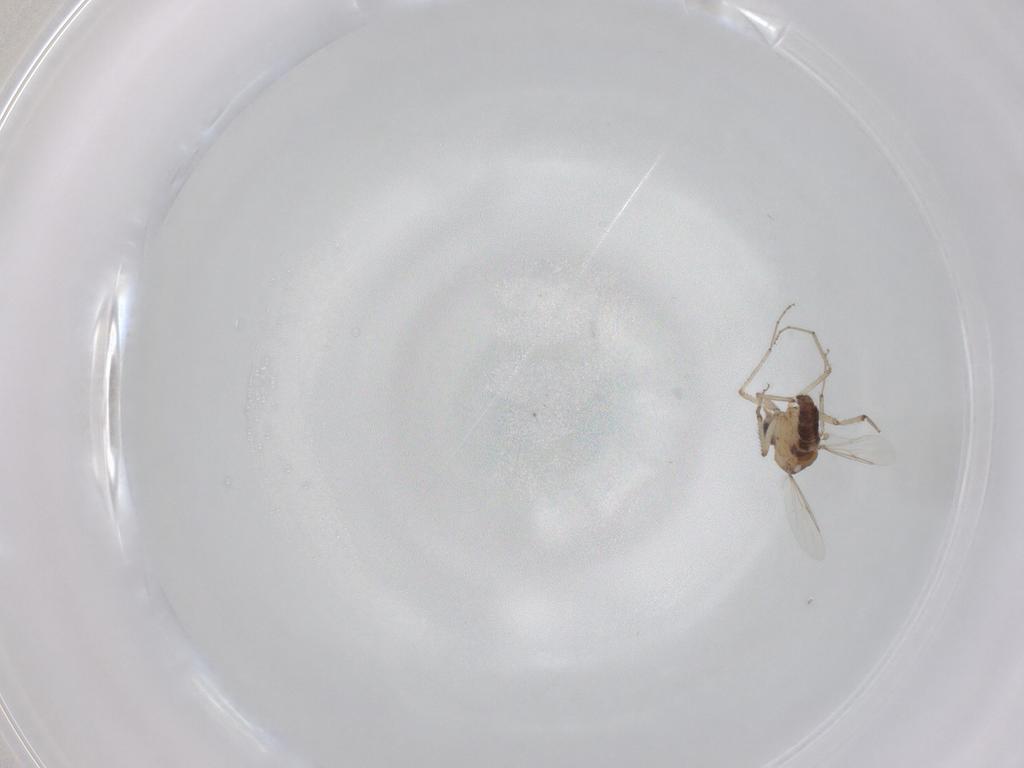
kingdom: Animalia
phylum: Arthropoda
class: Insecta
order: Diptera
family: Ceratopogonidae
